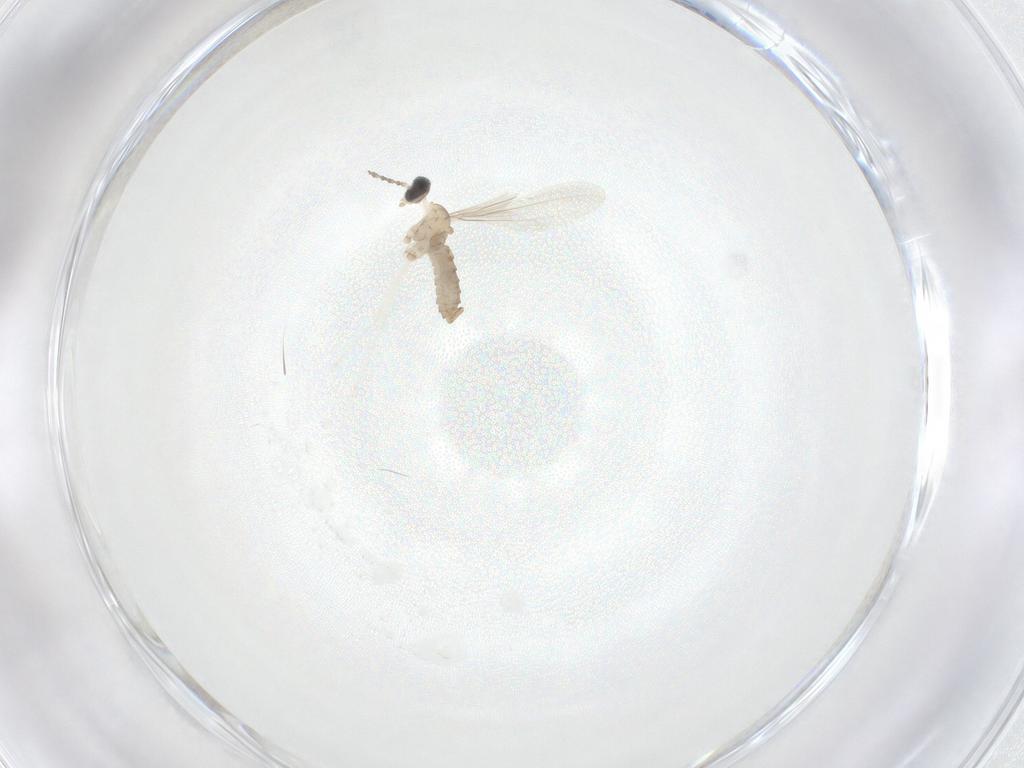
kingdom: Animalia
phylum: Arthropoda
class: Insecta
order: Diptera
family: Cecidomyiidae
